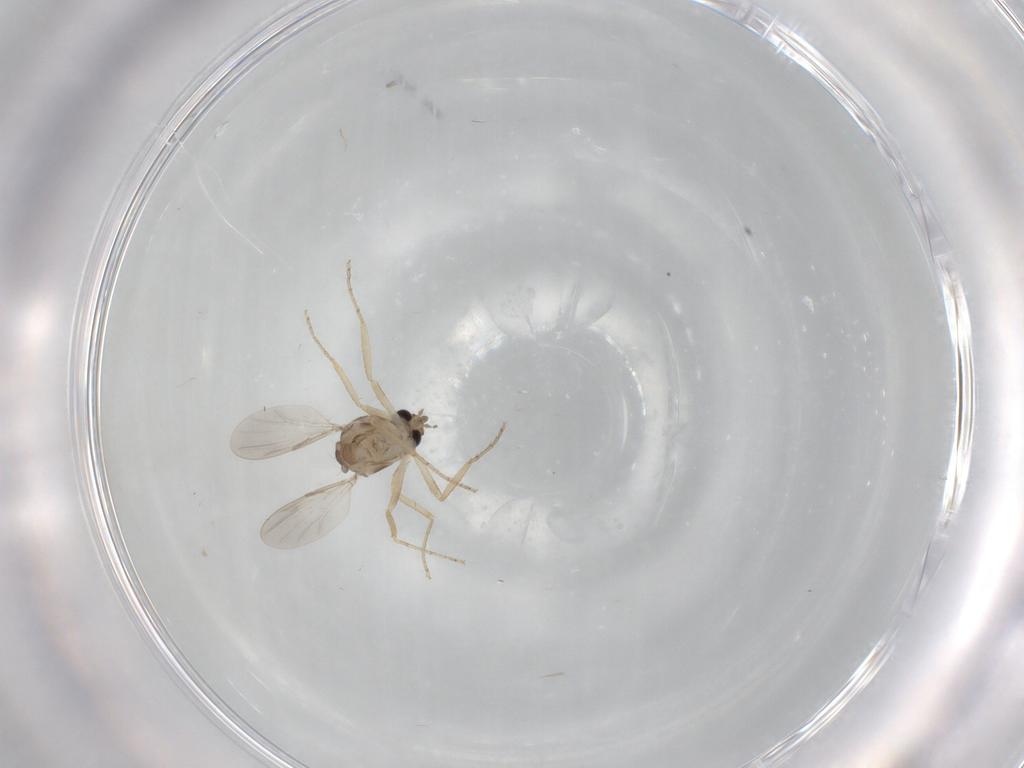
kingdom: Animalia
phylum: Arthropoda
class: Insecta
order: Diptera
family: Ceratopogonidae
